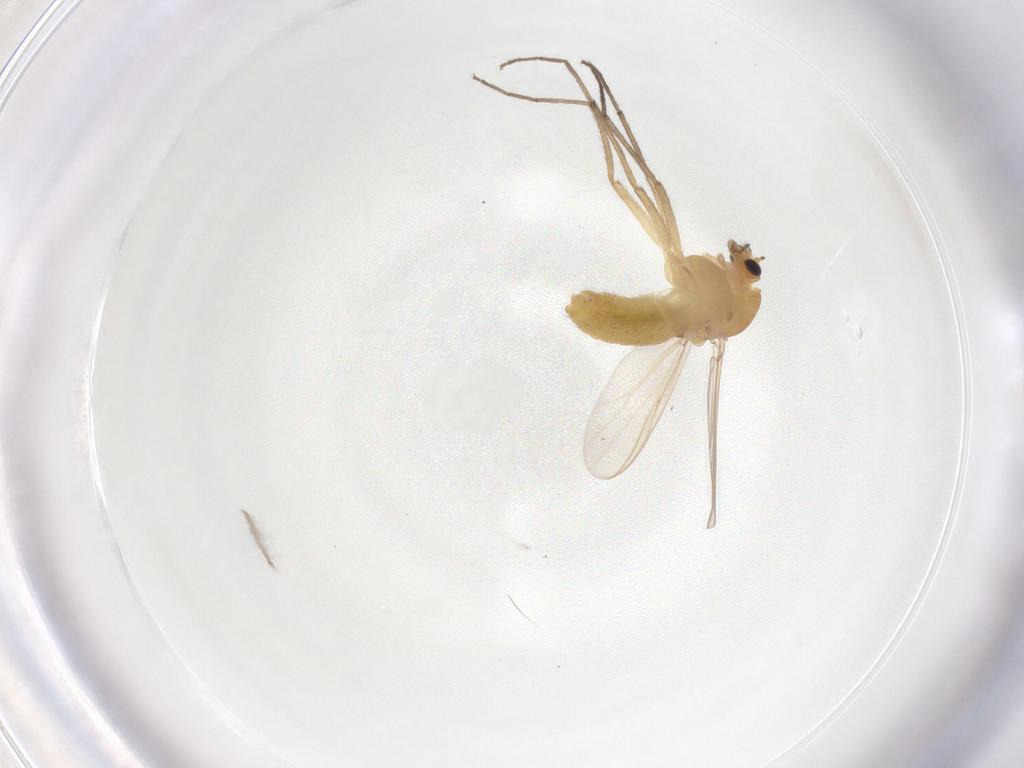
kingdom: Animalia
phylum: Arthropoda
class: Insecta
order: Diptera
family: Chironomidae
